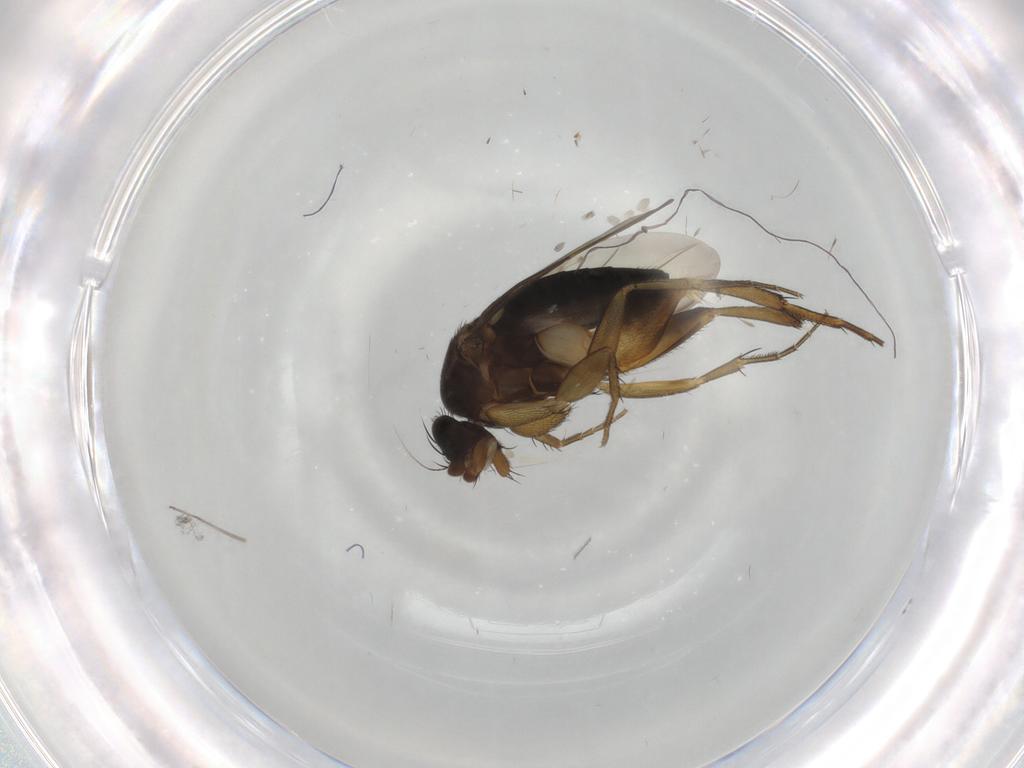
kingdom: Animalia
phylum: Arthropoda
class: Insecta
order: Diptera
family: Phoridae
